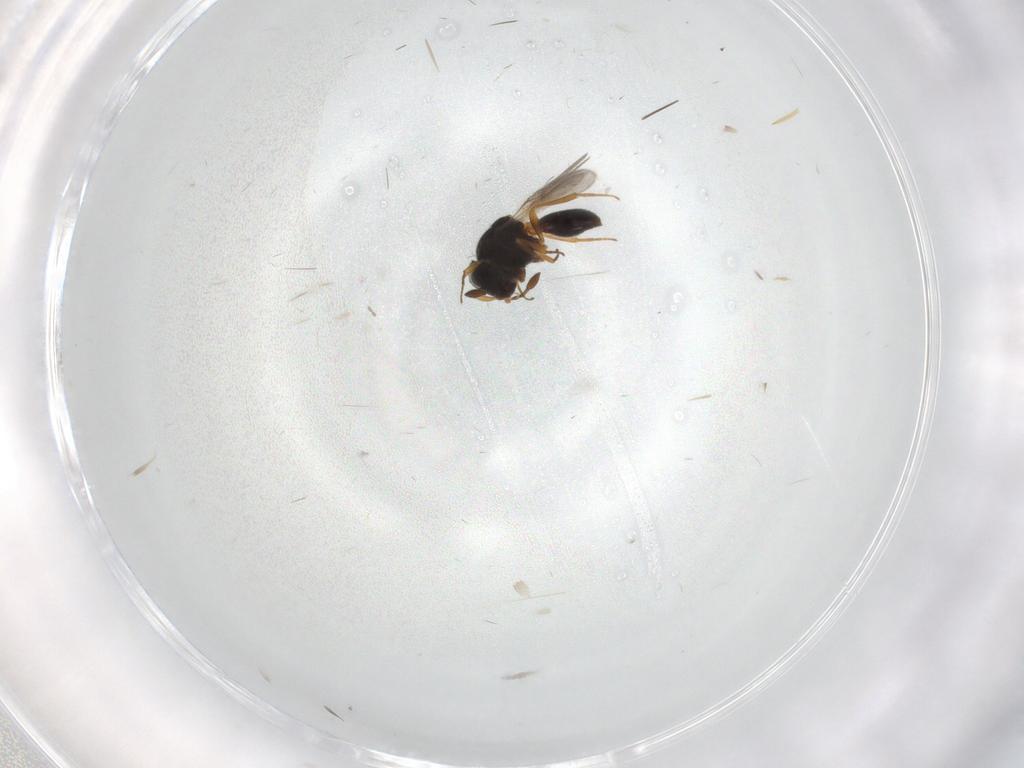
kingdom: Animalia
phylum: Arthropoda
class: Insecta
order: Hymenoptera
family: Scelionidae
